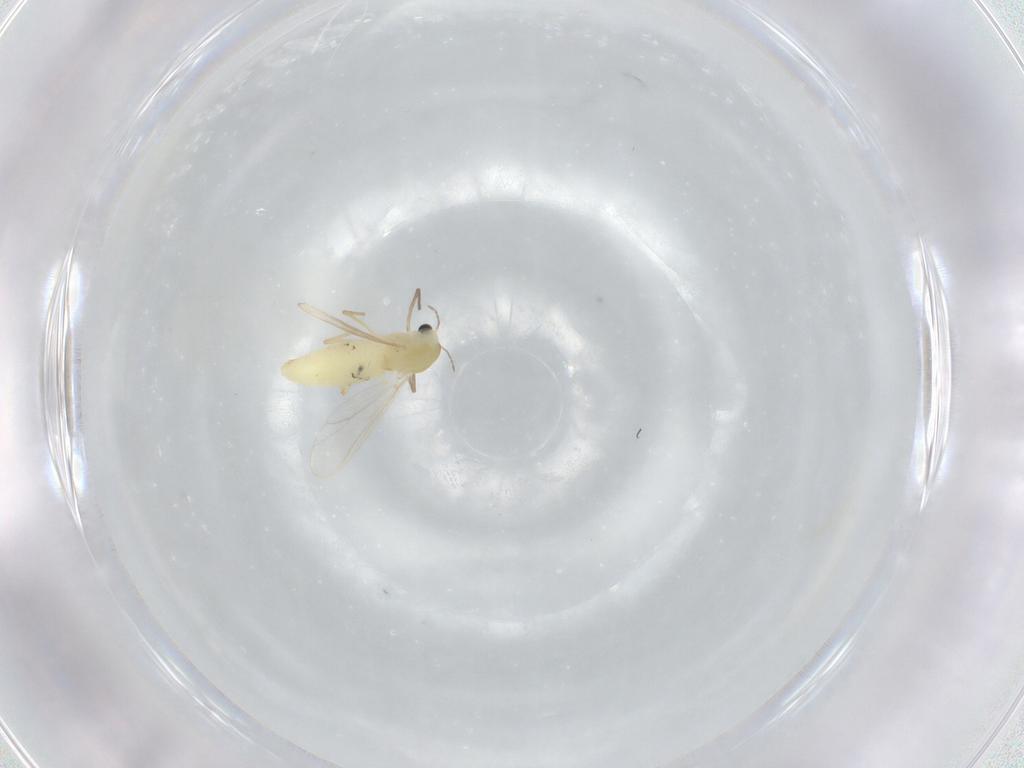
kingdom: Animalia
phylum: Arthropoda
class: Insecta
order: Diptera
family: Chironomidae
